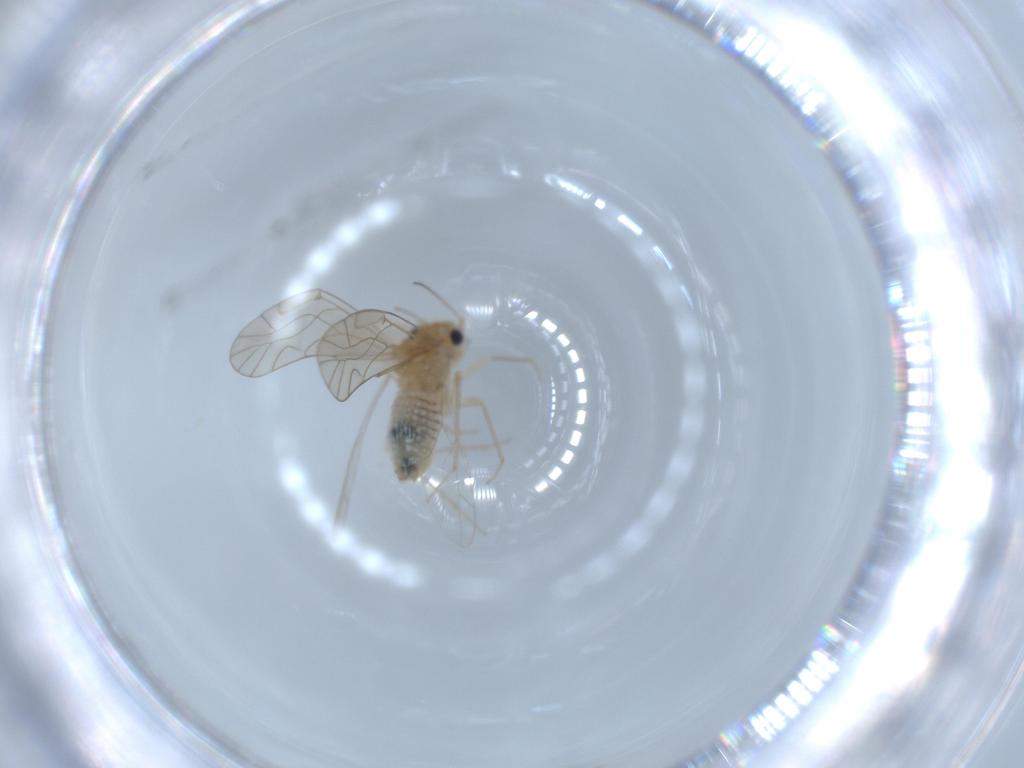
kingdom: Animalia
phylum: Arthropoda
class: Insecta
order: Psocodea
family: Lachesillidae
